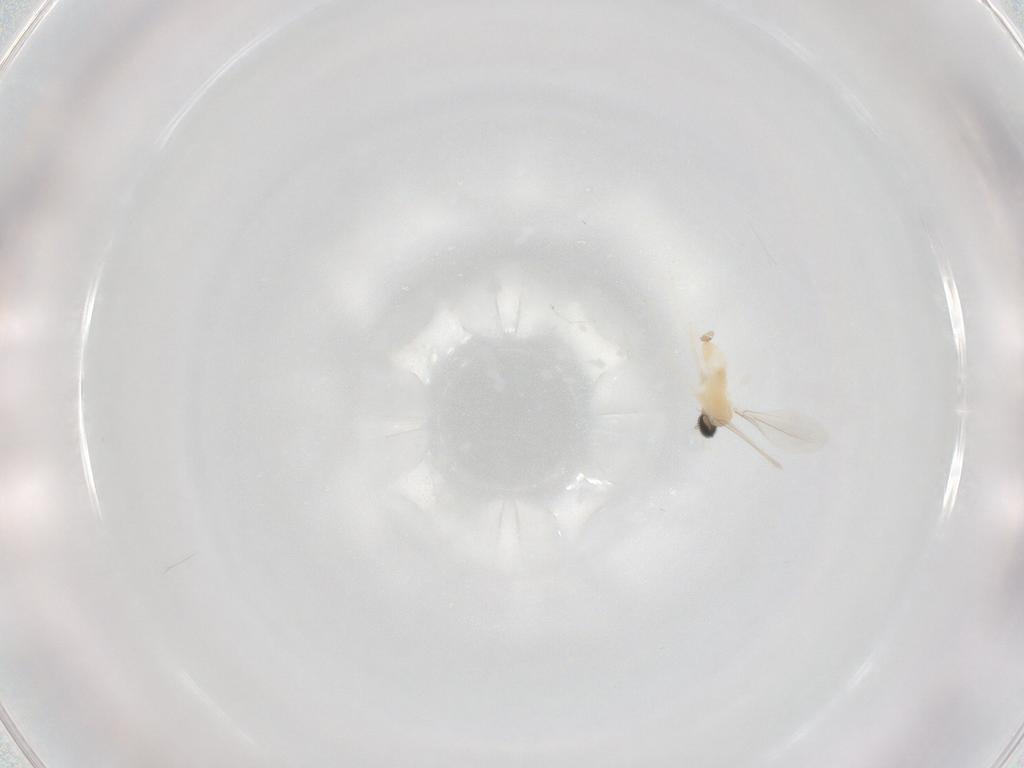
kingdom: Animalia
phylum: Arthropoda
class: Insecta
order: Diptera
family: Cecidomyiidae
